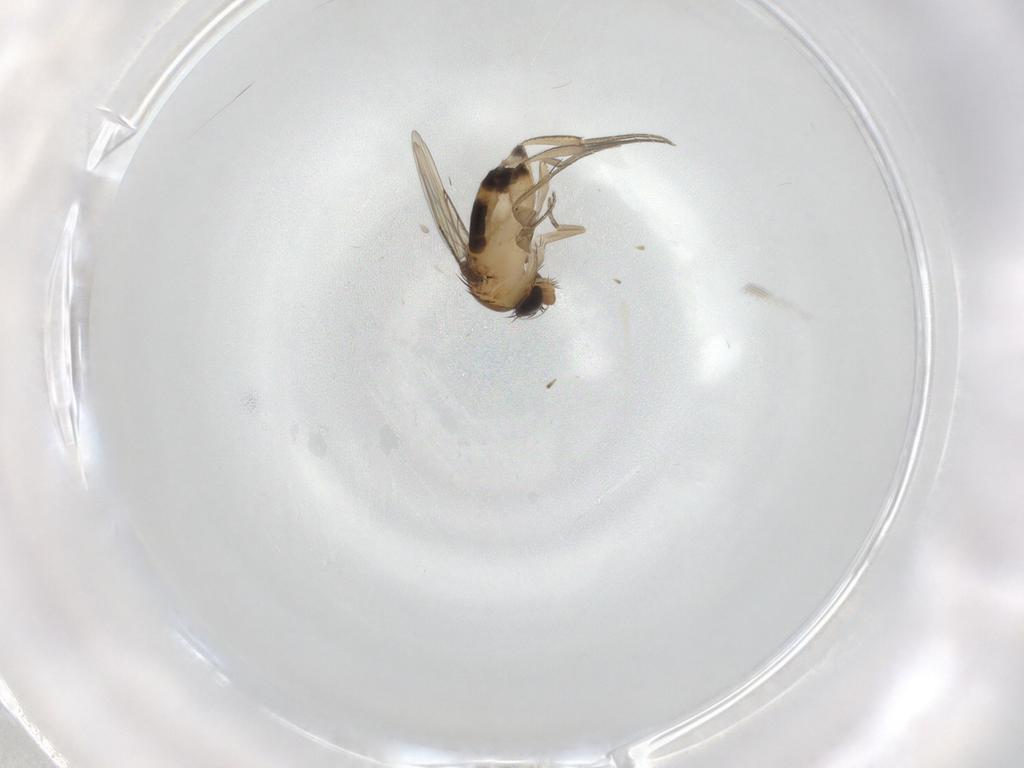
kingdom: Animalia
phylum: Arthropoda
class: Insecta
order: Diptera
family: Phoridae
